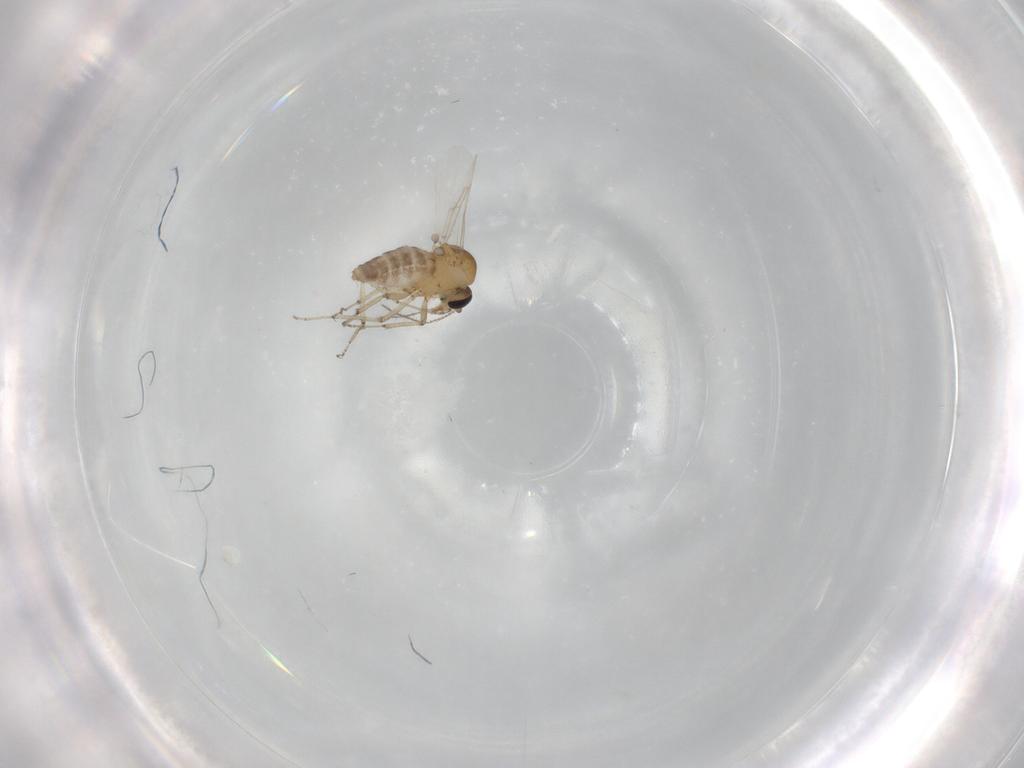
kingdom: Animalia
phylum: Arthropoda
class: Insecta
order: Diptera
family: Ceratopogonidae
